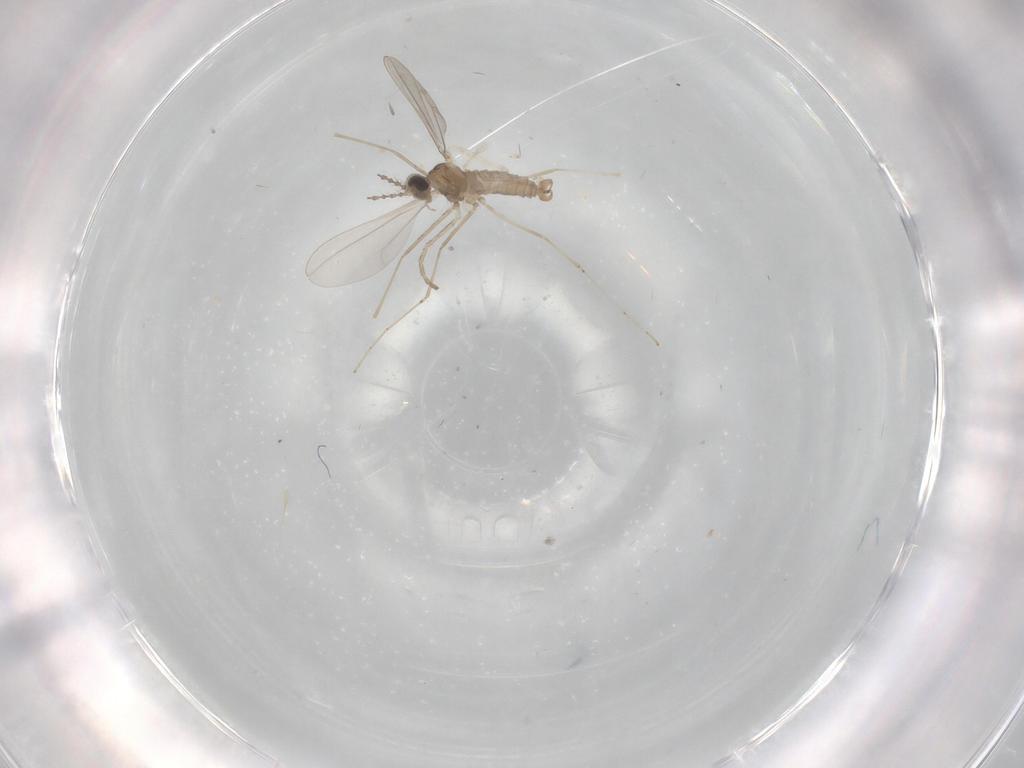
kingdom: Animalia
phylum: Arthropoda
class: Insecta
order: Diptera
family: Cecidomyiidae
